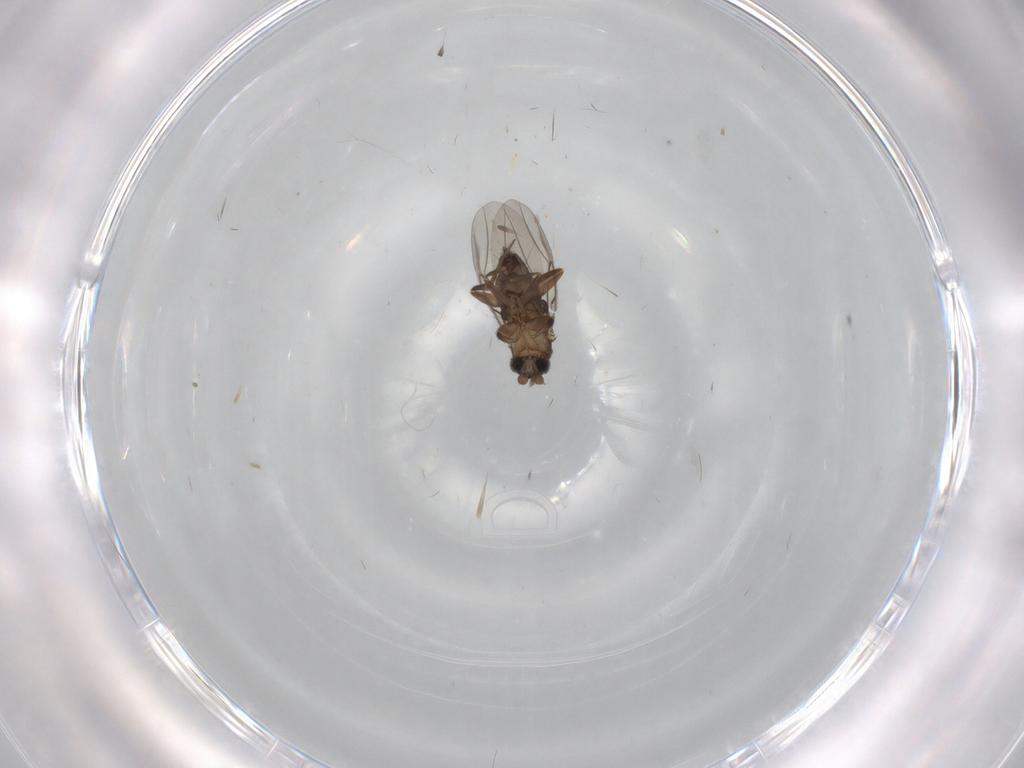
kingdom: Animalia
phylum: Arthropoda
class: Insecta
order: Diptera
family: Cecidomyiidae
